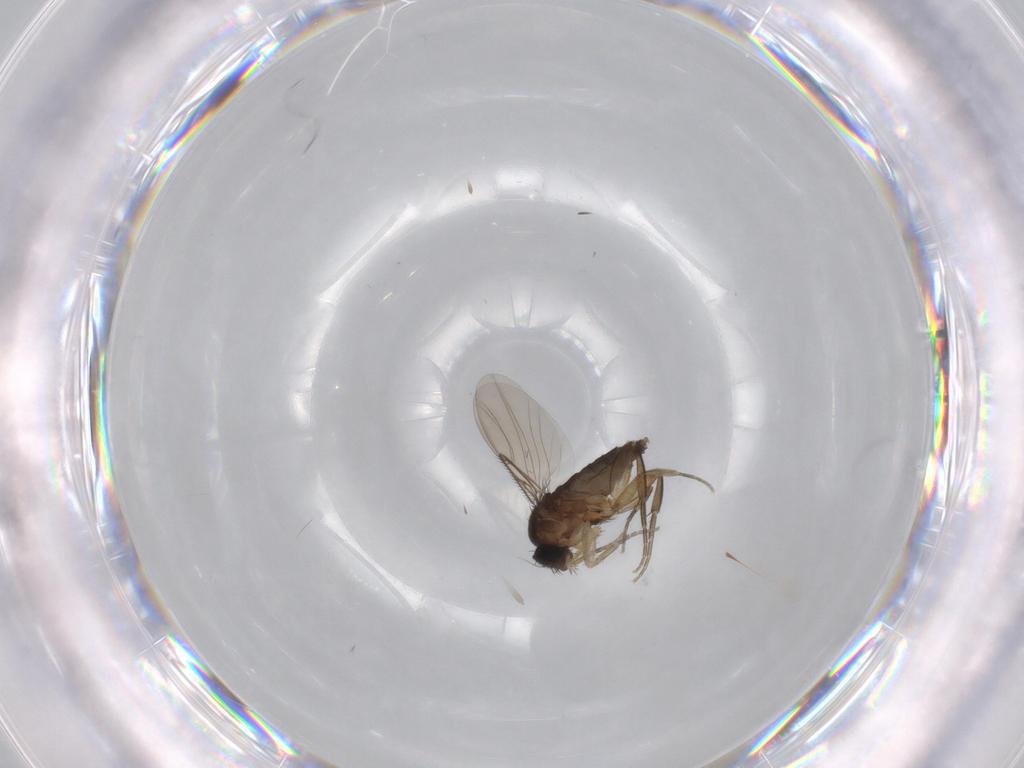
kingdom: Animalia
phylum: Arthropoda
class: Insecta
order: Diptera
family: Phoridae
